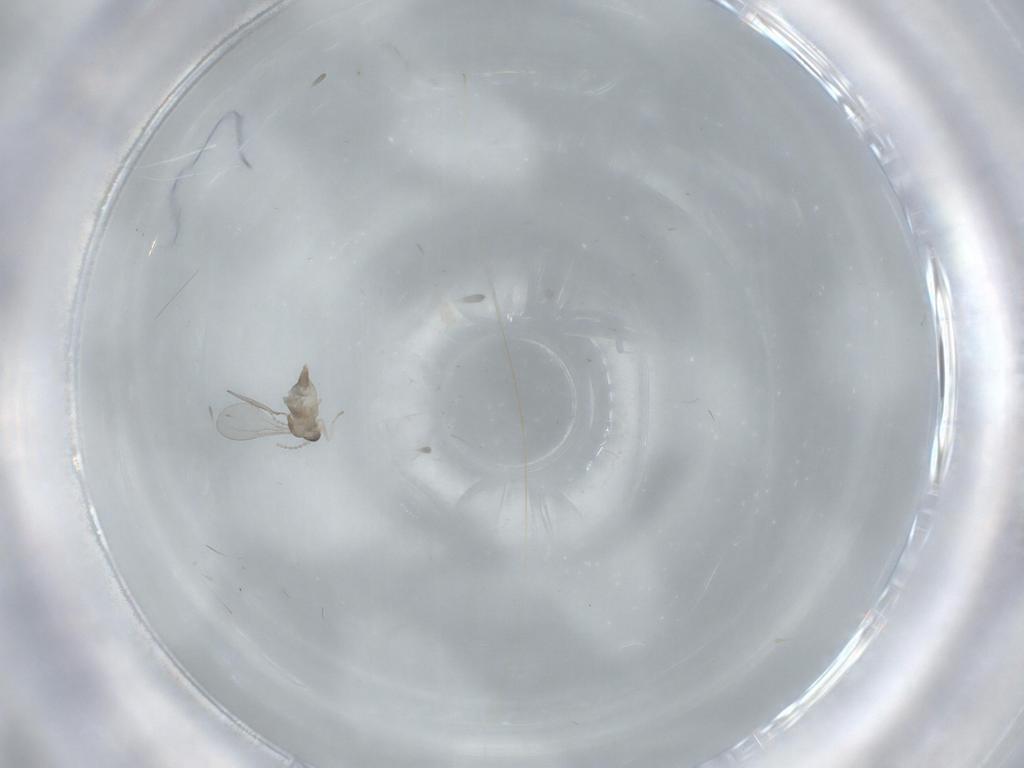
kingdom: Animalia
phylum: Arthropoda
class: Insecta
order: Diptera
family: Cecidomyiidae
